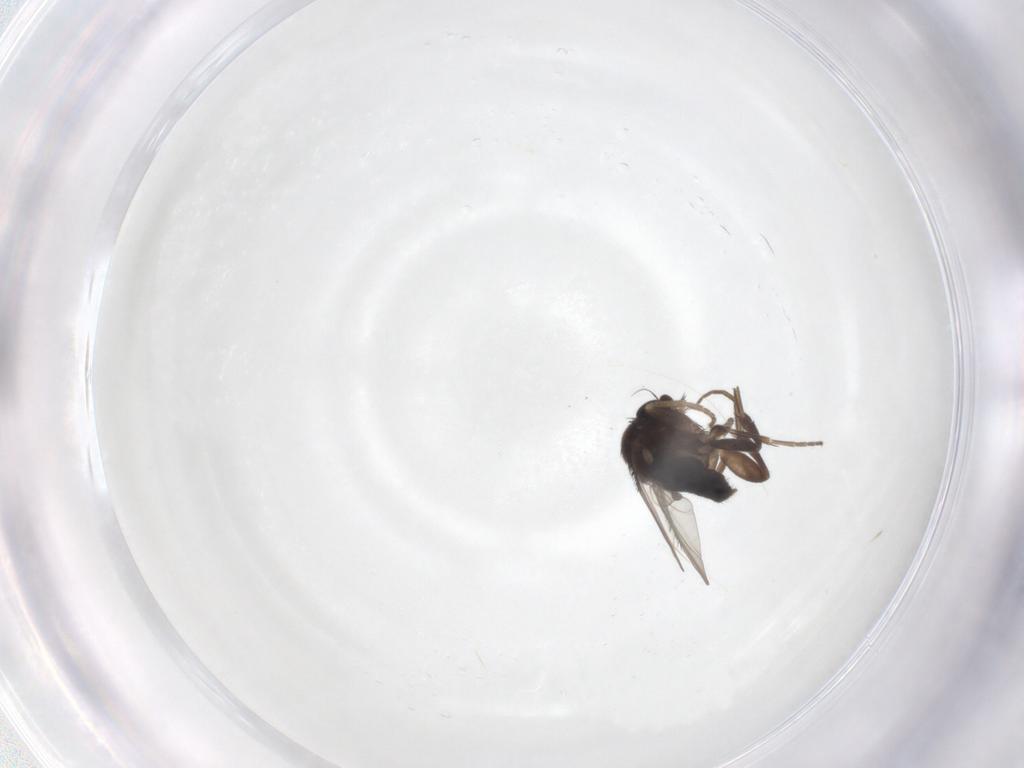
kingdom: Animalia
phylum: Arthropoda
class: Insecta
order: Diptera
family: Phoridae
